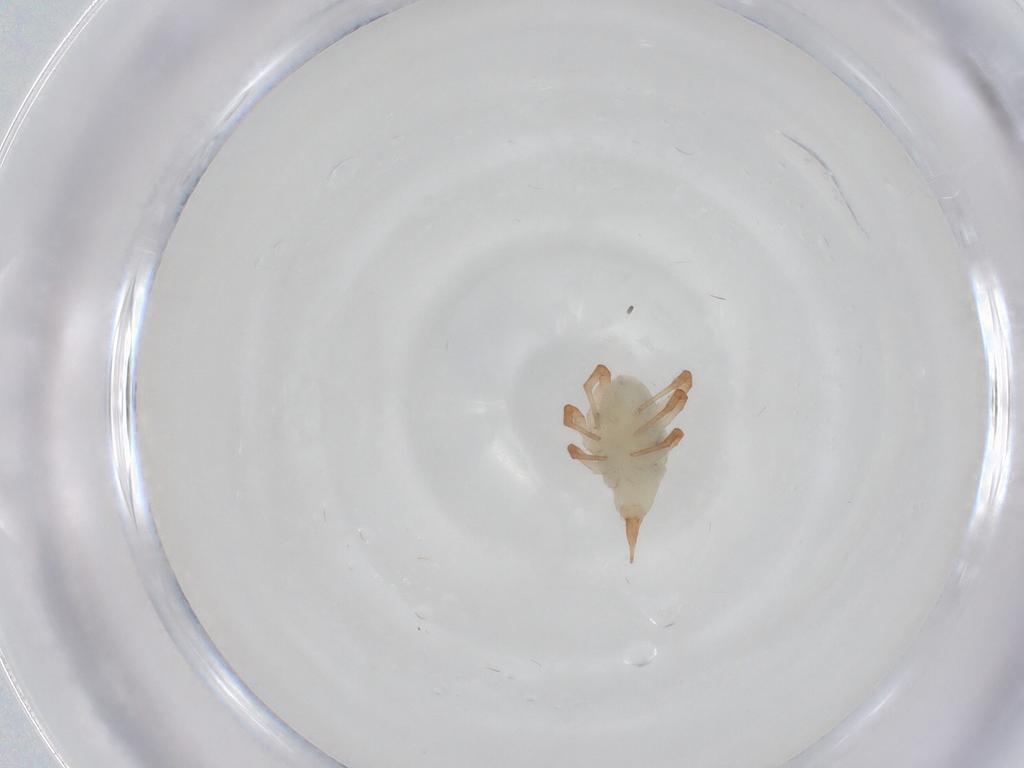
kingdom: Animalia
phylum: Arthropoda
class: Arachnida
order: Trombidiformes
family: Bdellidae
